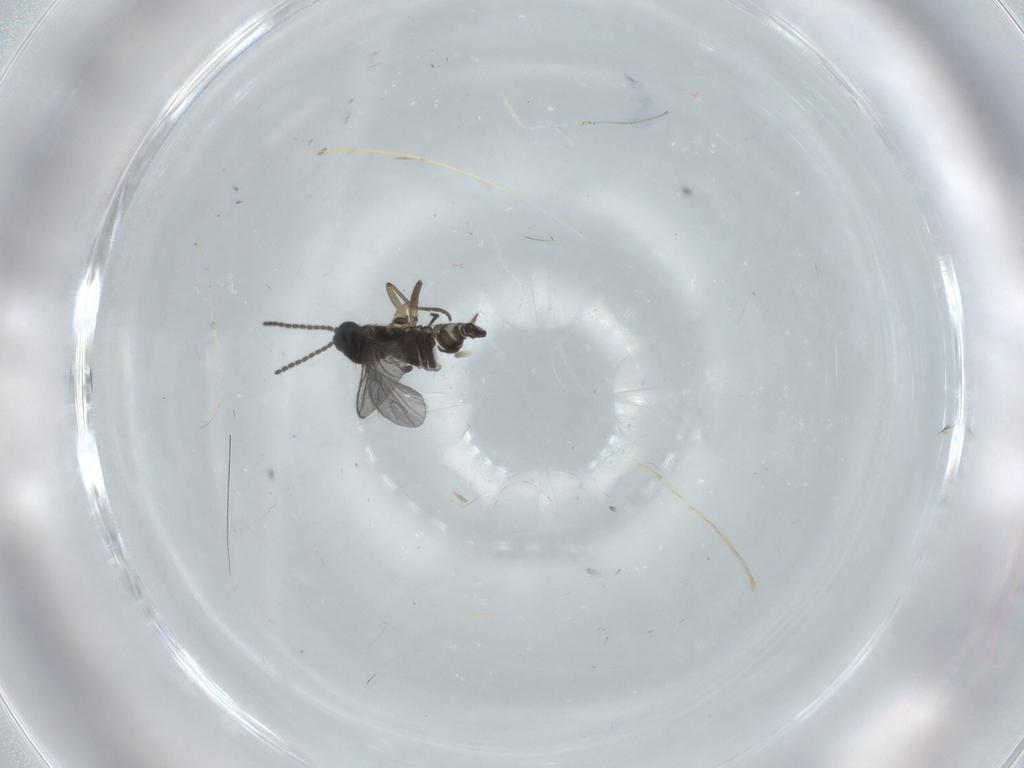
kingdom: Animalia
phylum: Arthropoda
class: Insecta
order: Diptera
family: Sciaridae
